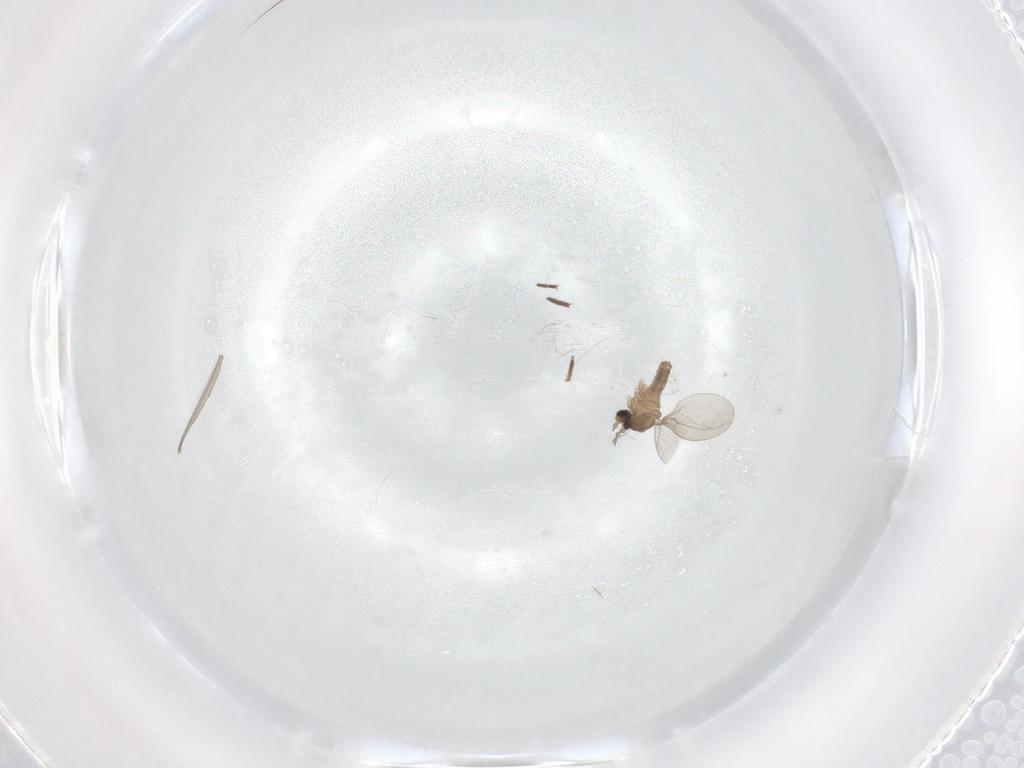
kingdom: Animalia
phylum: Arthropoda
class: Insecta
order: Diptera
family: Cecidomyiidae
